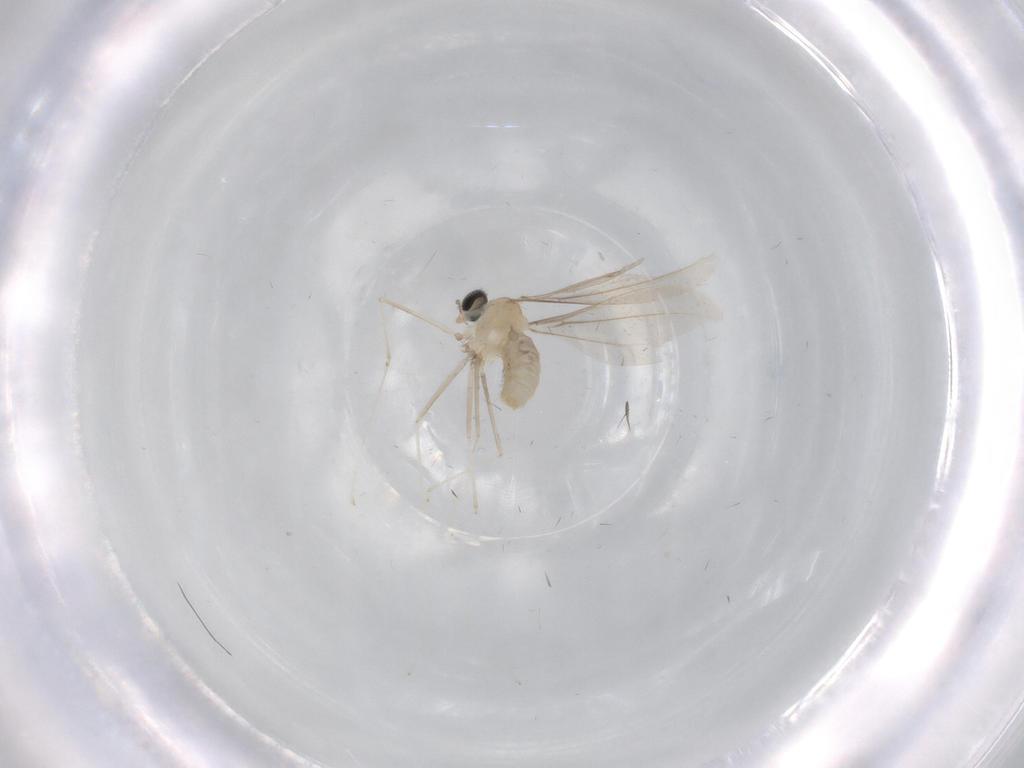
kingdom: Animalia
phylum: Arthropoda
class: Insecta
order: Diptera
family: Cecidomyiidae
